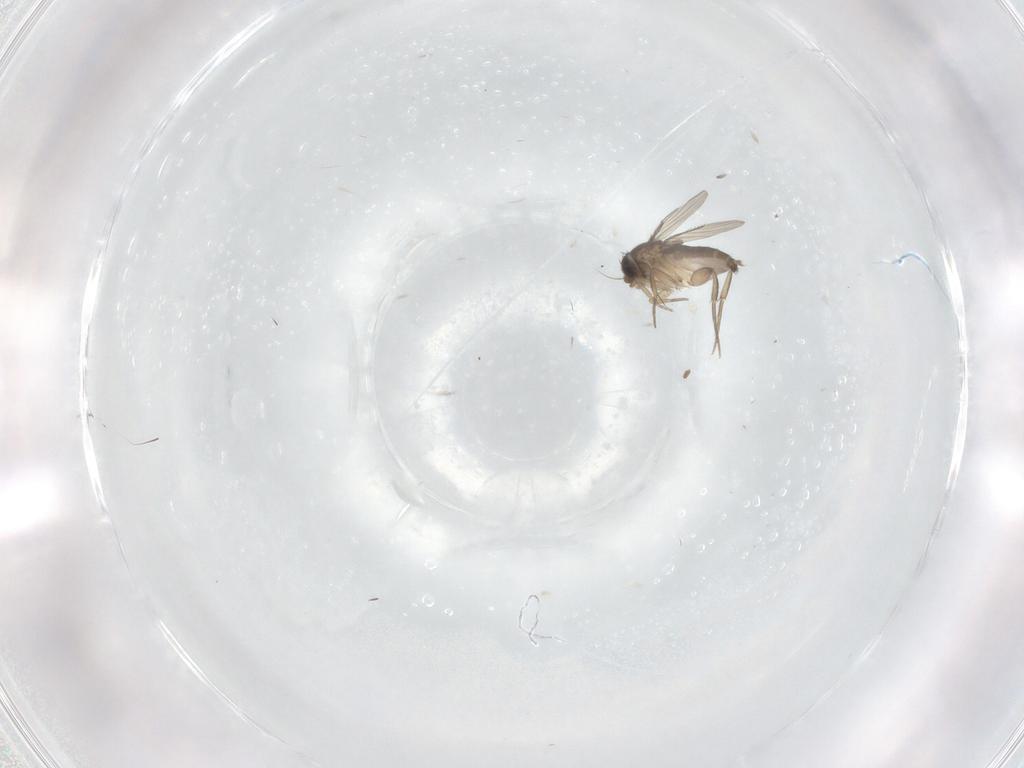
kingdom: Animalia
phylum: Arthropoda
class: Insecta
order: Diptera
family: Phoridae
